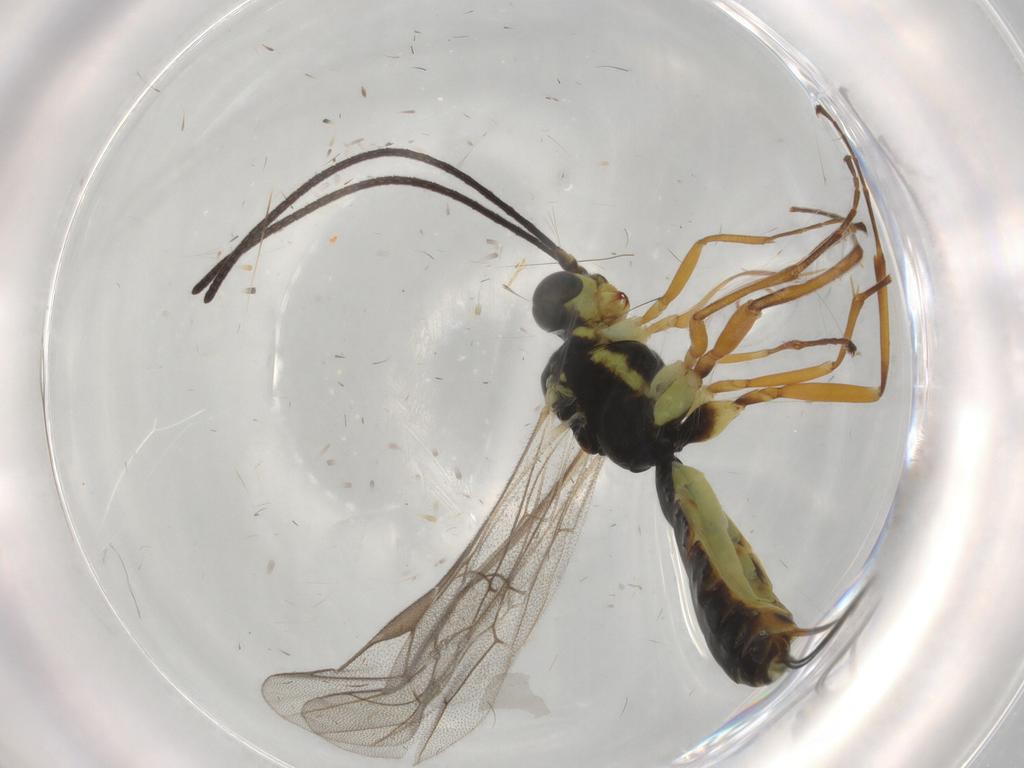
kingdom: Animalia
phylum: Arthropoda
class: Insecta
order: Hymenoptera
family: Ichneumonidae
